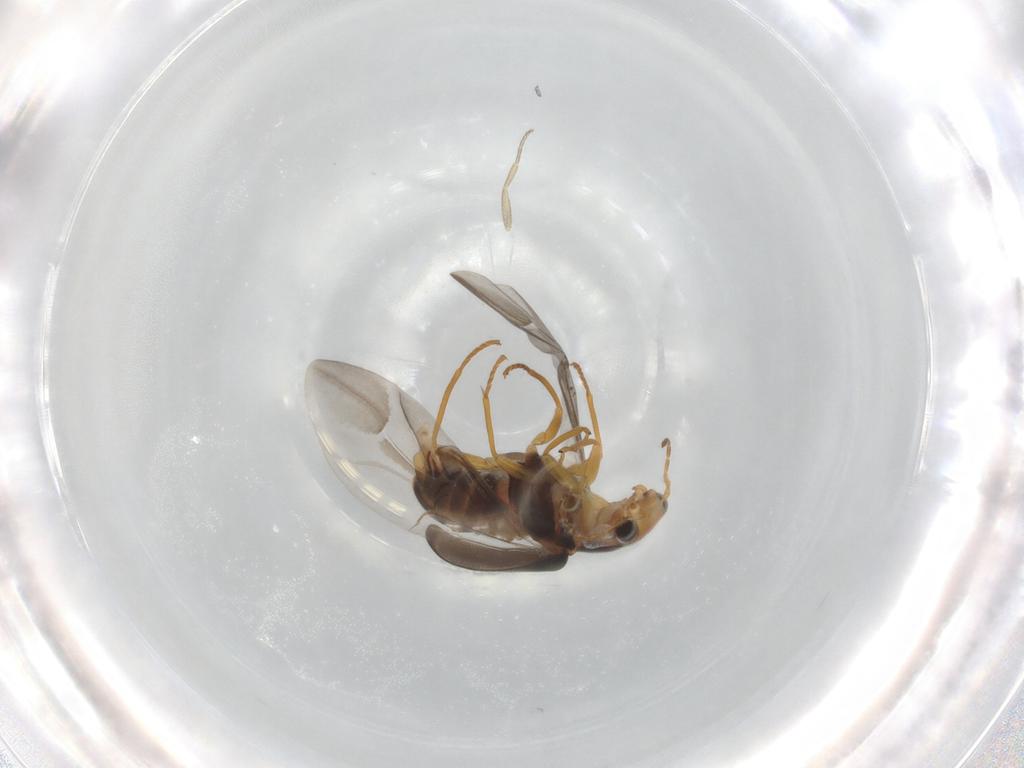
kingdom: Animalia
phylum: Arthropoda
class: Insecta
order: Coleoptera
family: Melyridae
